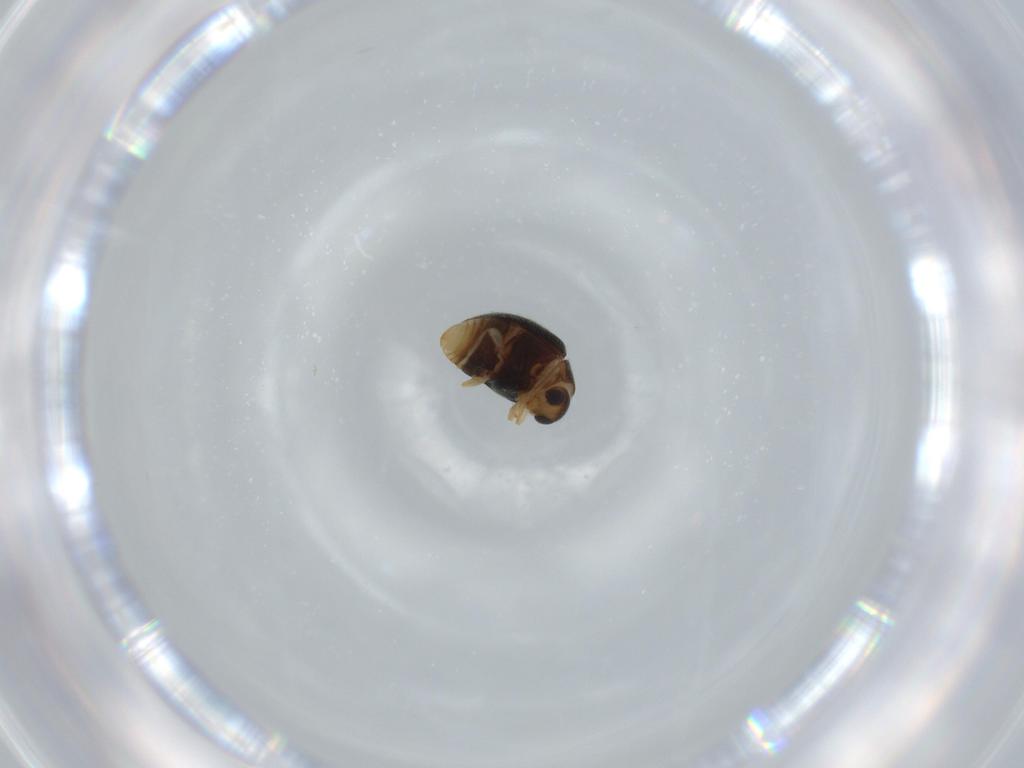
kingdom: Animalia
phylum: Arthropoda
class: Insecta
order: Coleoptera
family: Coccinellidae
